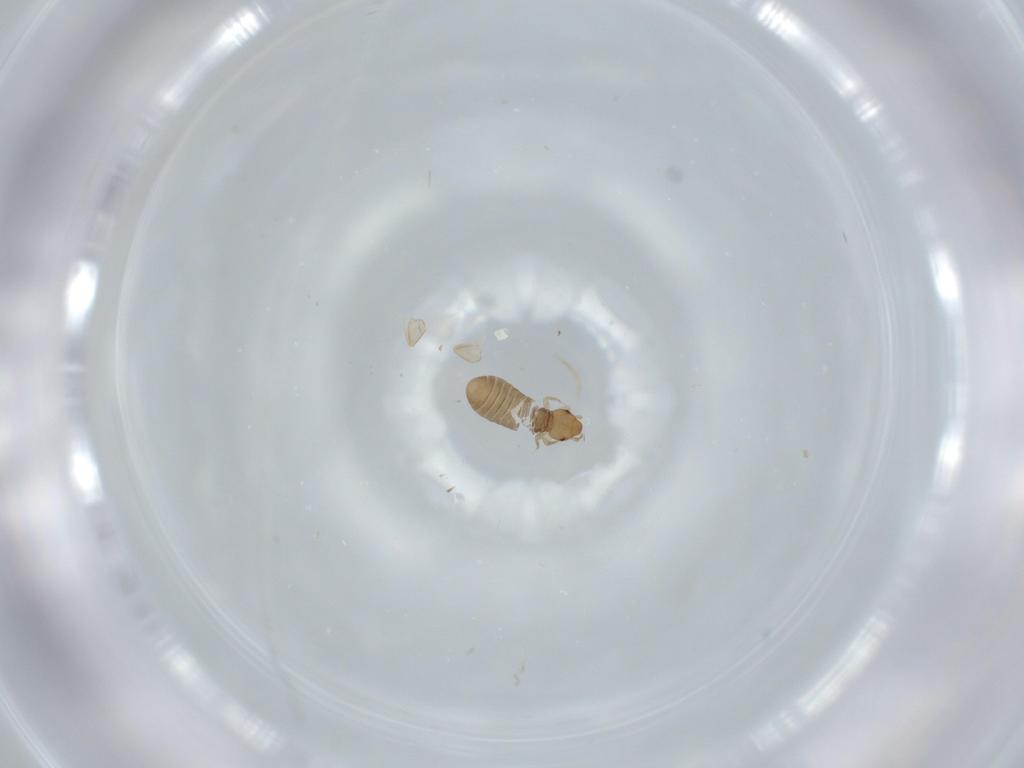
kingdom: Animalia
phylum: Arthropoda
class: Insecta
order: Psocodea
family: Liposcelididae
